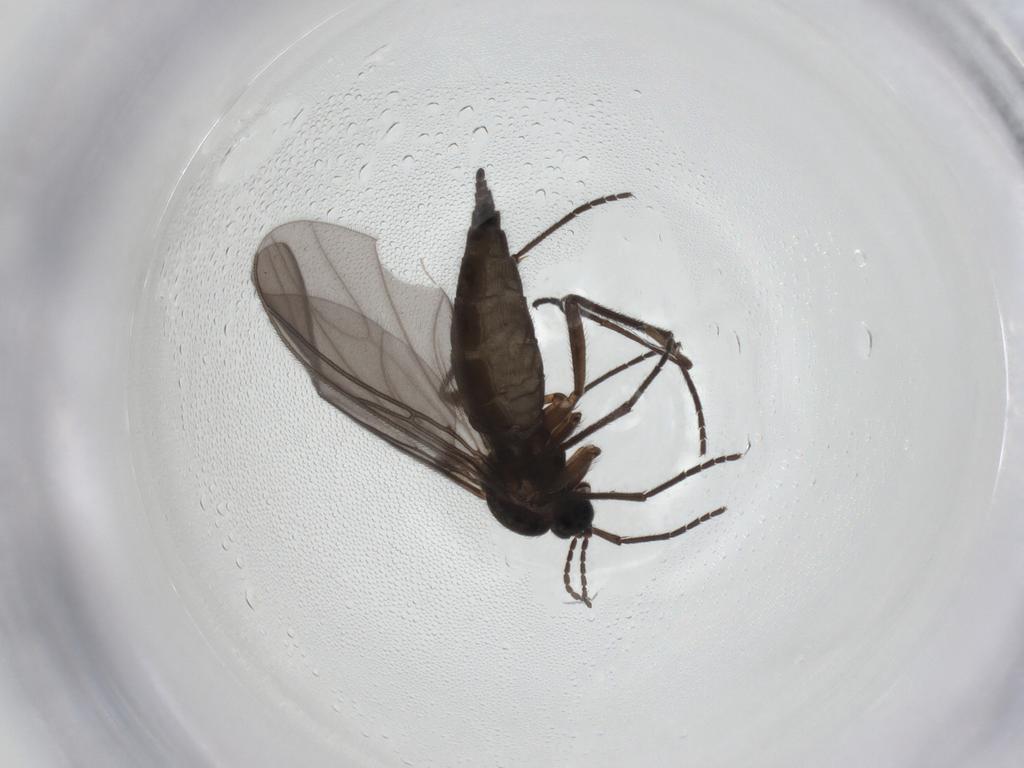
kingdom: Animalia
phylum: Arthropoda
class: Insecta
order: Diptera
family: Sciaridae
